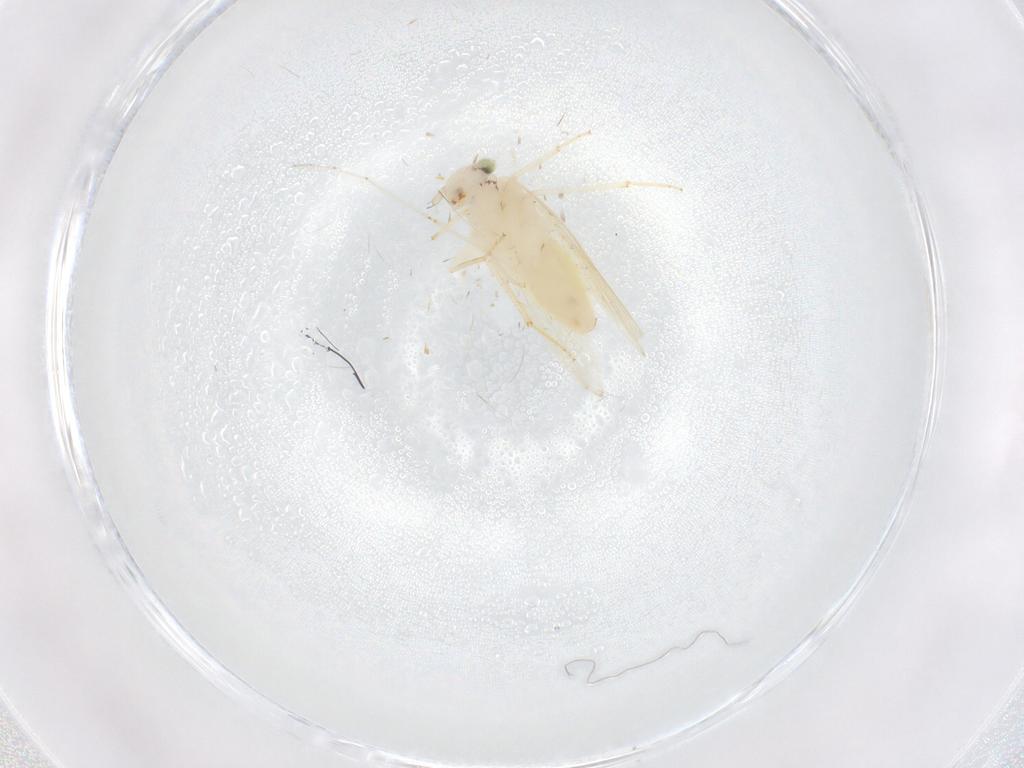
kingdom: Animalia
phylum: Arthropoda
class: Insecta
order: Psocodea
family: Lepidopsocidae
